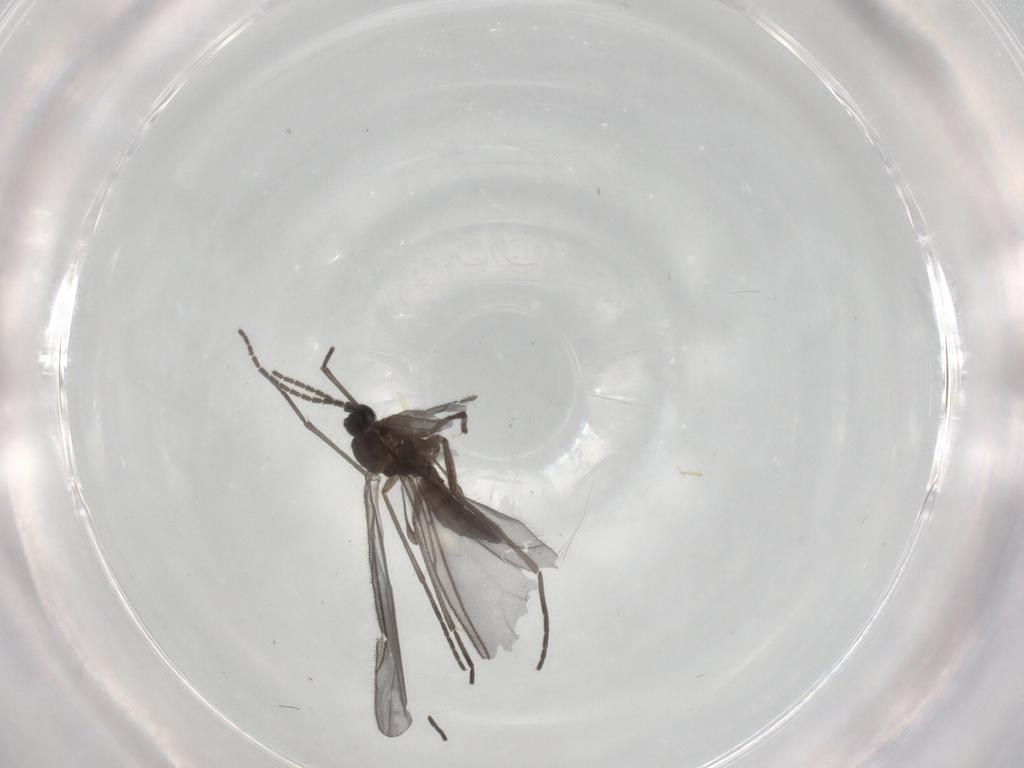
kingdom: Animalia
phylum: Arthropoda
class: Insecta
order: Diptera
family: Sciaridae
